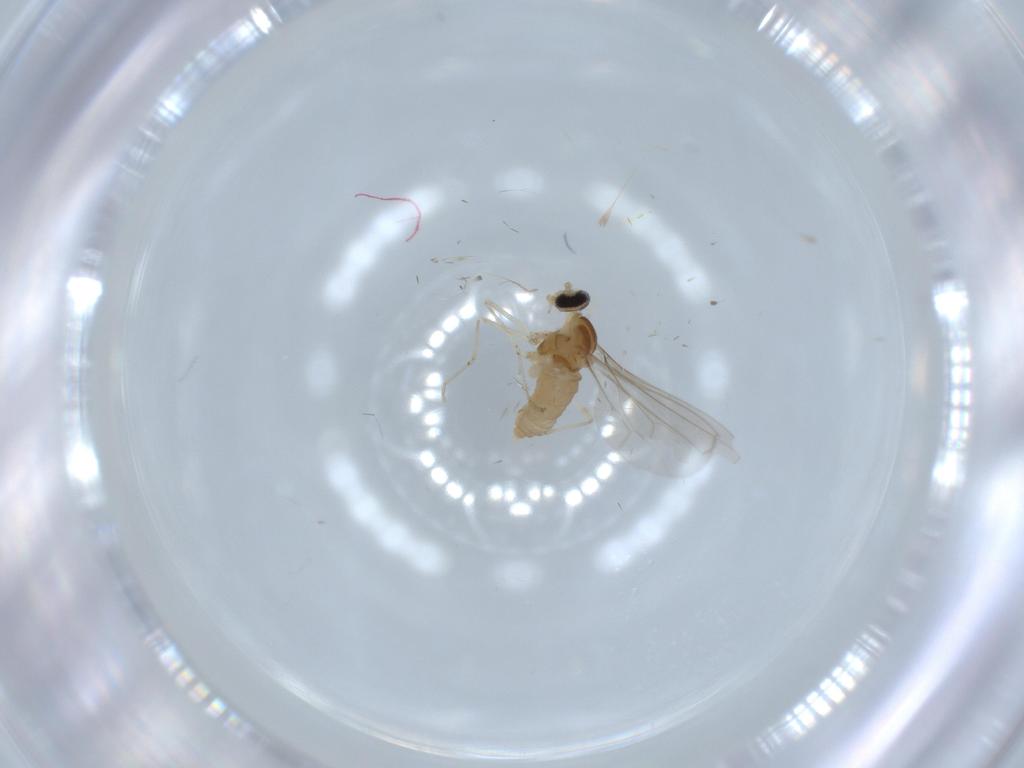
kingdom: Animalia
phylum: Arthropoda
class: Insecta
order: Diptera
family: Cecidomyiidae
